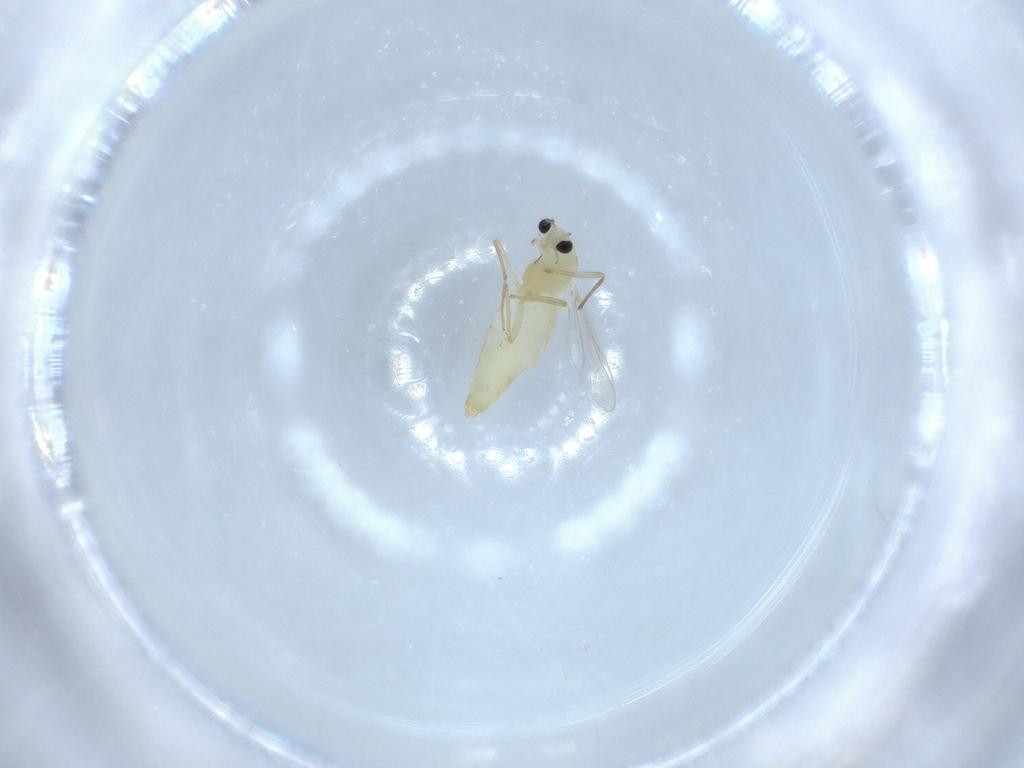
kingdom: Animalia
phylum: Arthropoda
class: Insecta
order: Diptera
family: Chironomidae
